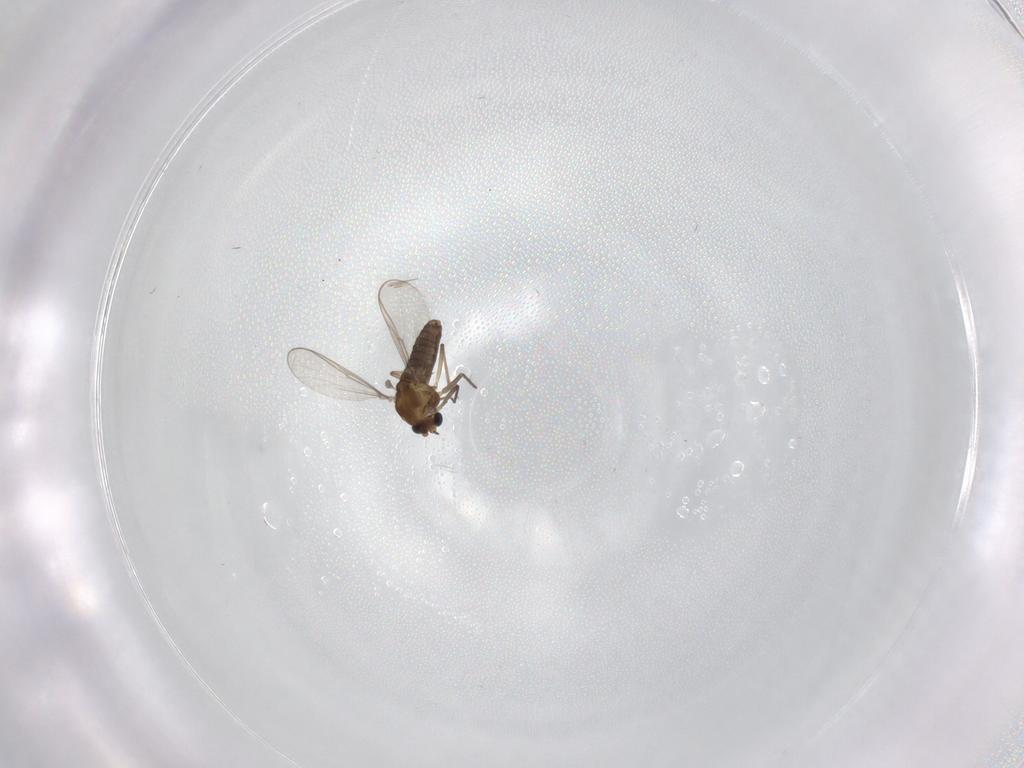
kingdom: Animalia
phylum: Arthropoda
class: Insecta
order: Diptera
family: Chironomidae
